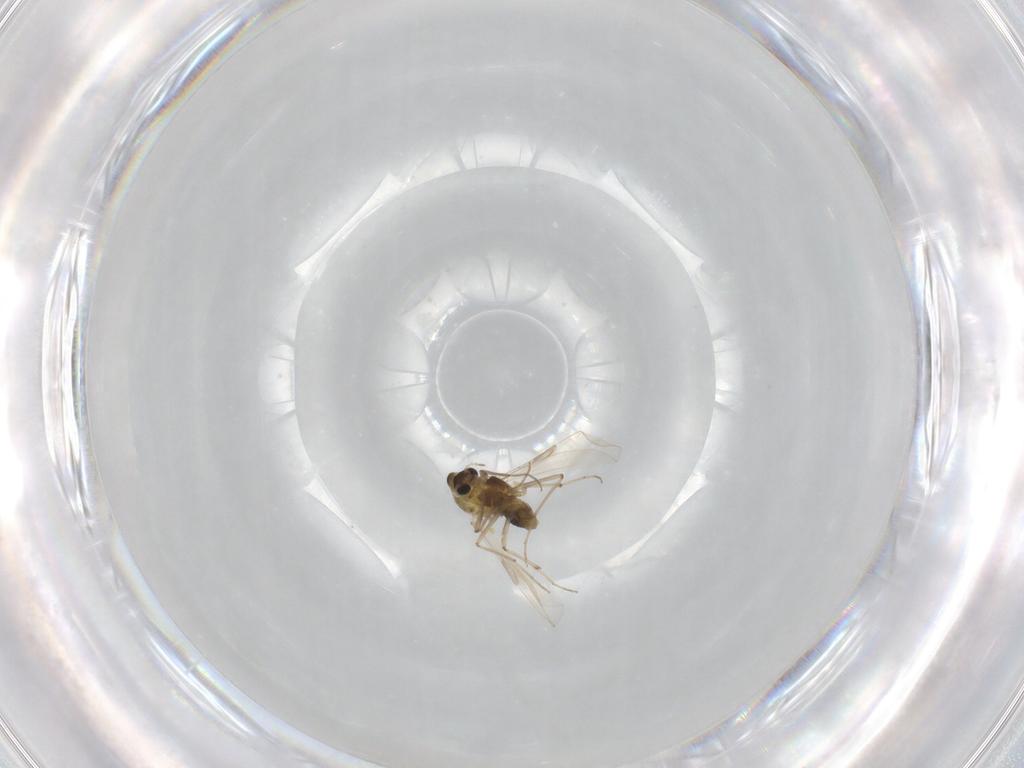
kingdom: Animalia
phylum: Arthropoda
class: Insecta
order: Diptera
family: Chironomidae
